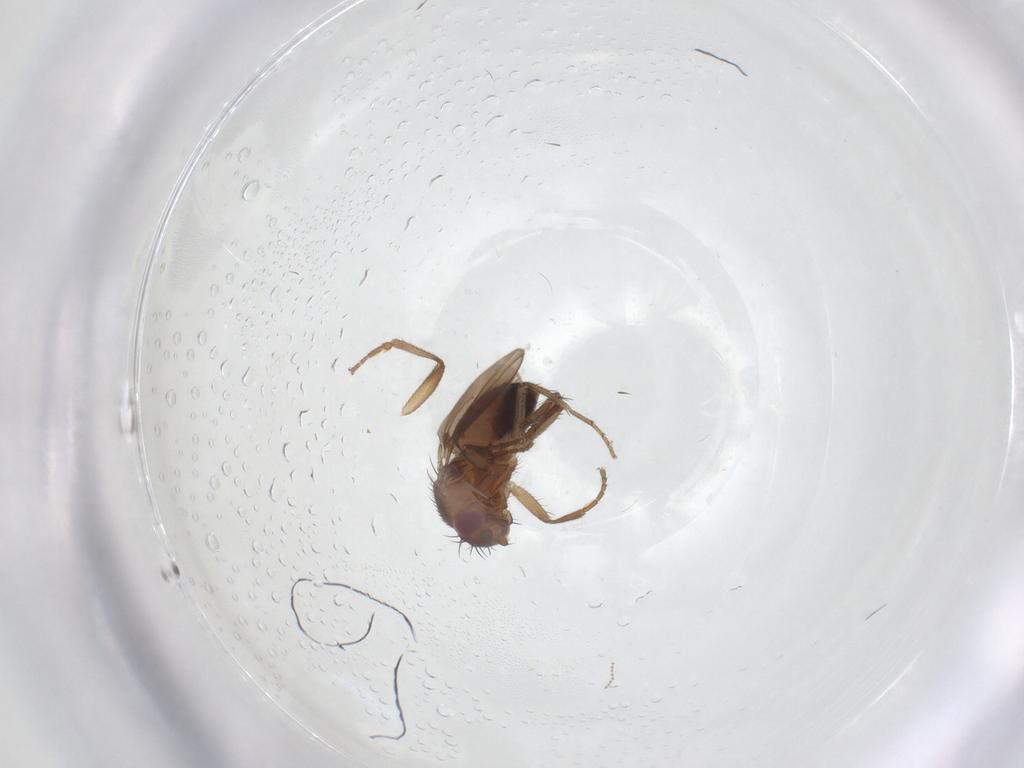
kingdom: Animalia
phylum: Arthropoda
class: Insecta
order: Diptera
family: Sphaeroceridae
